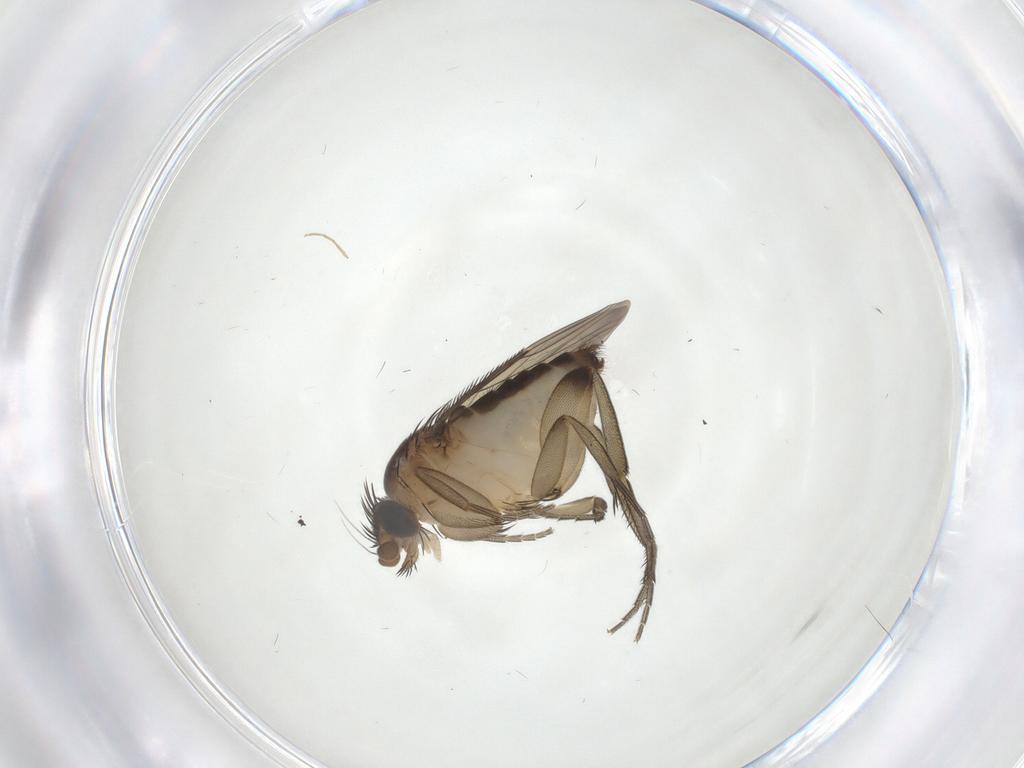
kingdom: Animalia
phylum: Arthropoda
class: Insecta
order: Diptera
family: Phoridae
